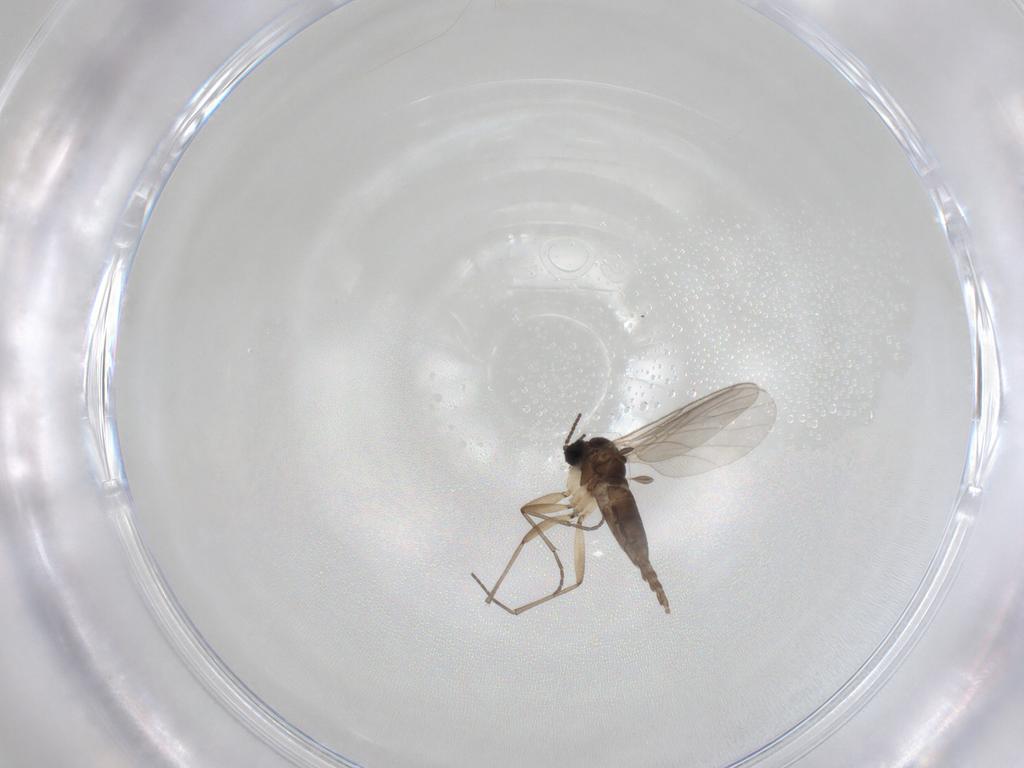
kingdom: Animalia
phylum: Arthropoda
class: Insecta
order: Diptera
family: Sciaridae
